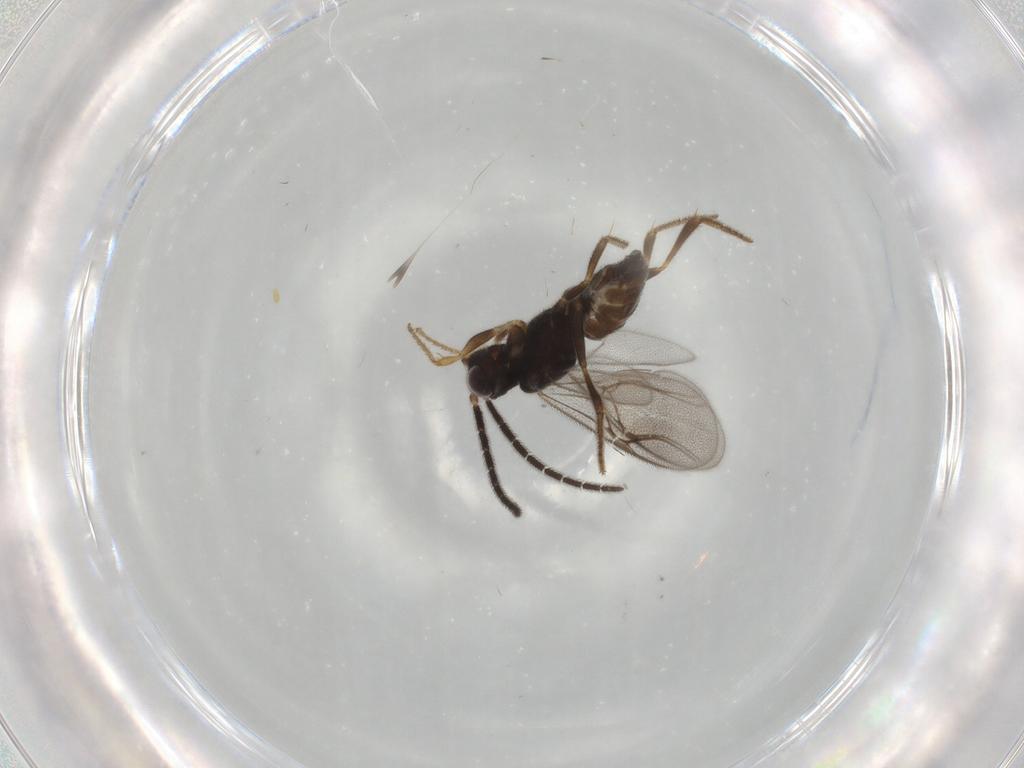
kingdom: Animalia
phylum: Arthropoda
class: Insecta
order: Hymenoptera
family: Dryinidae
